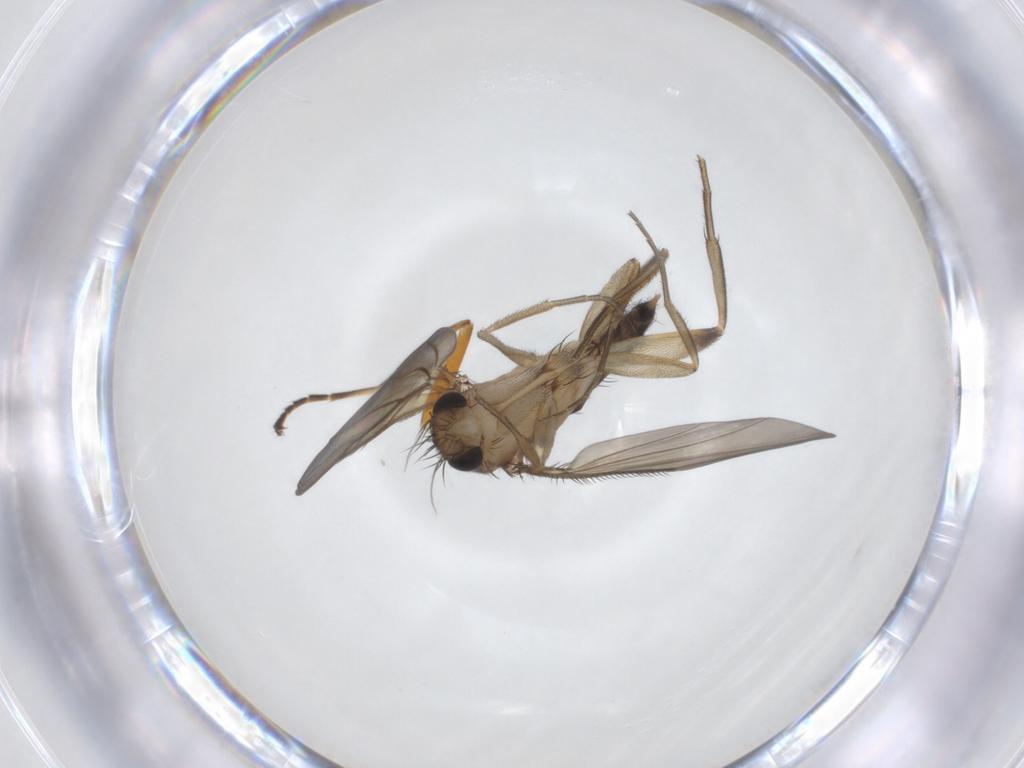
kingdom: Animalia
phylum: Arthropoda
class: Insecta
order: Diptera
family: Phoridae
